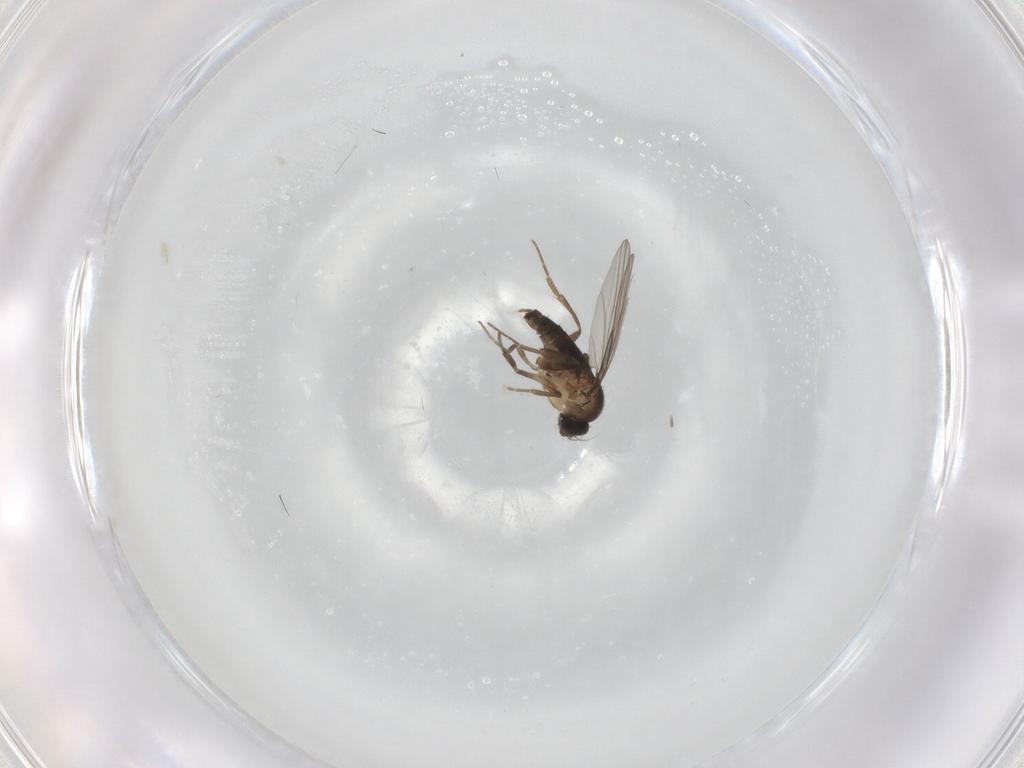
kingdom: Animalia
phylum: Arthropoda
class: Insecta
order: Diptera
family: Phoridae
